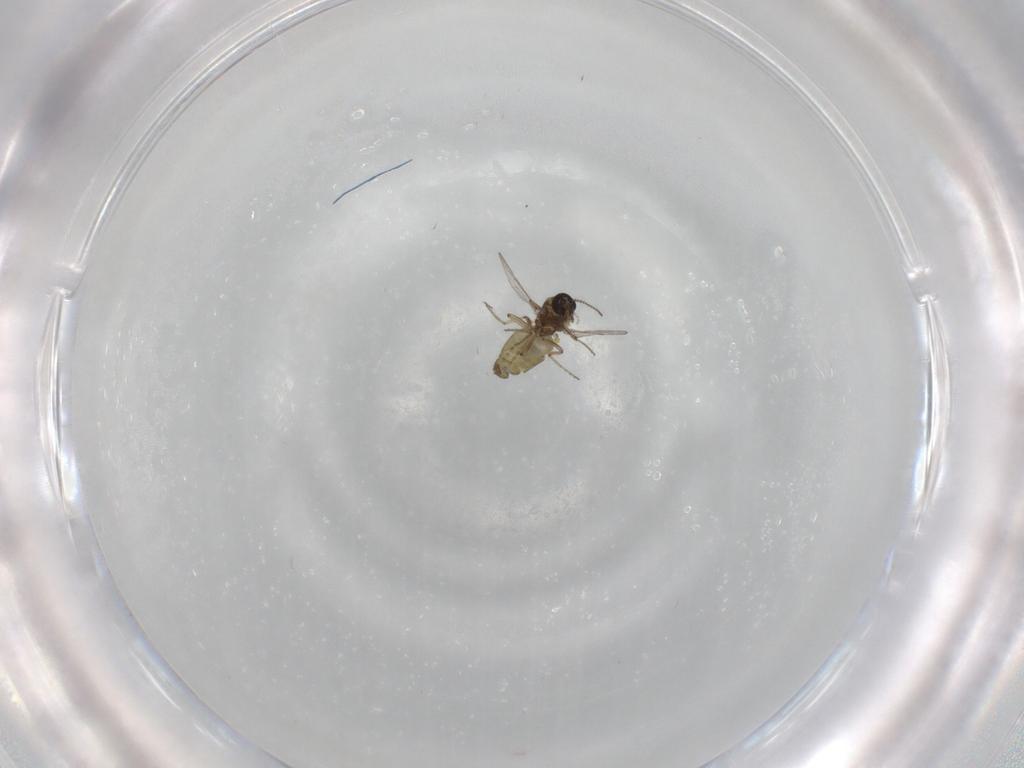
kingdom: Animalia
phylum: Arthropoda
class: Insecta
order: Diptera
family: Ceratopogonidae
